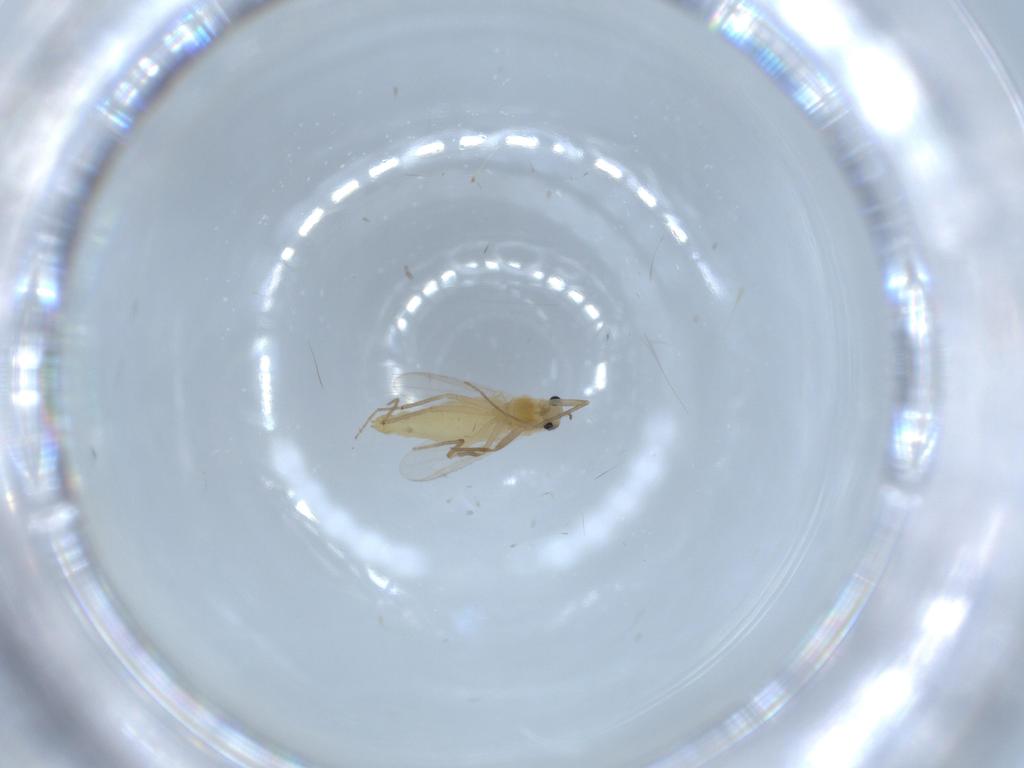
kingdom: Animalia
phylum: Arthropoda
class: Insecta
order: Diptera
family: Chironomidae
